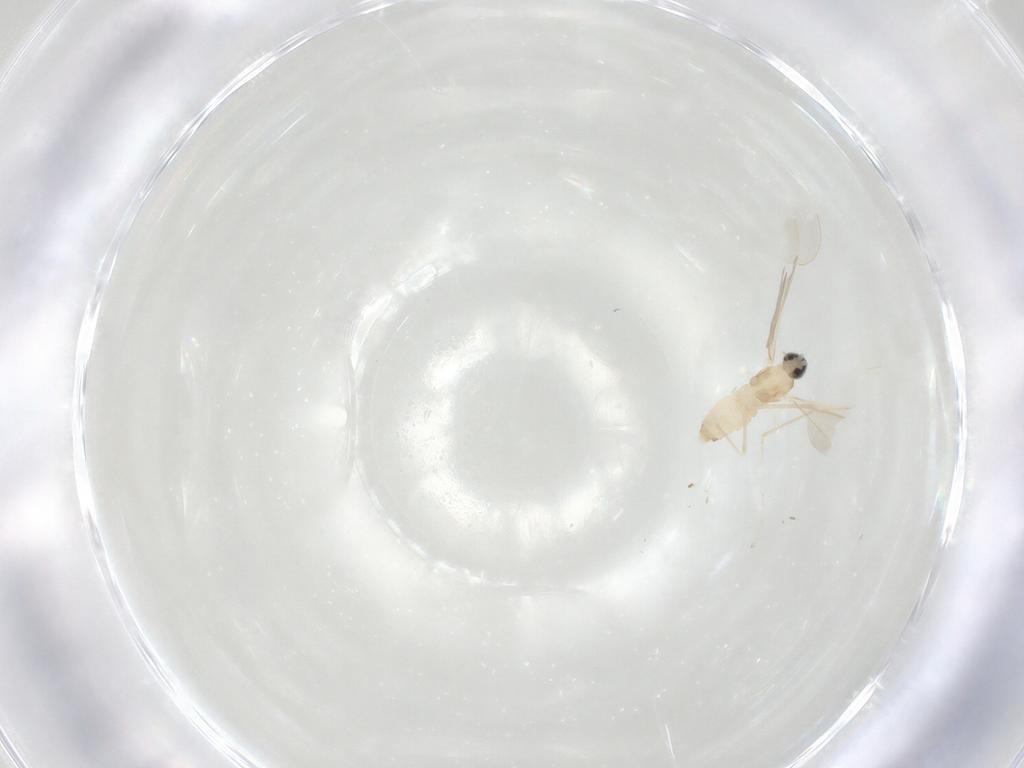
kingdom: Animalia
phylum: Arthropoda
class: Insecta
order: Diptera
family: Cecidomyiidae
